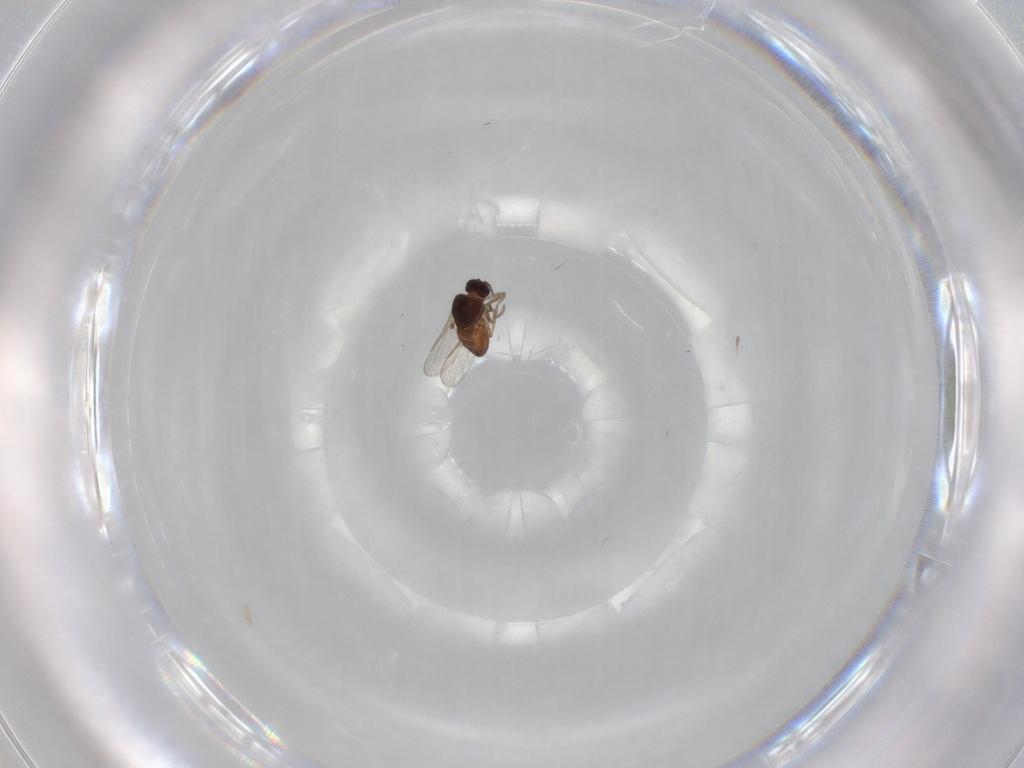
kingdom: Animalia
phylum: Arthropoda
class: Insecta
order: Diptera
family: Ceratopogonidae
